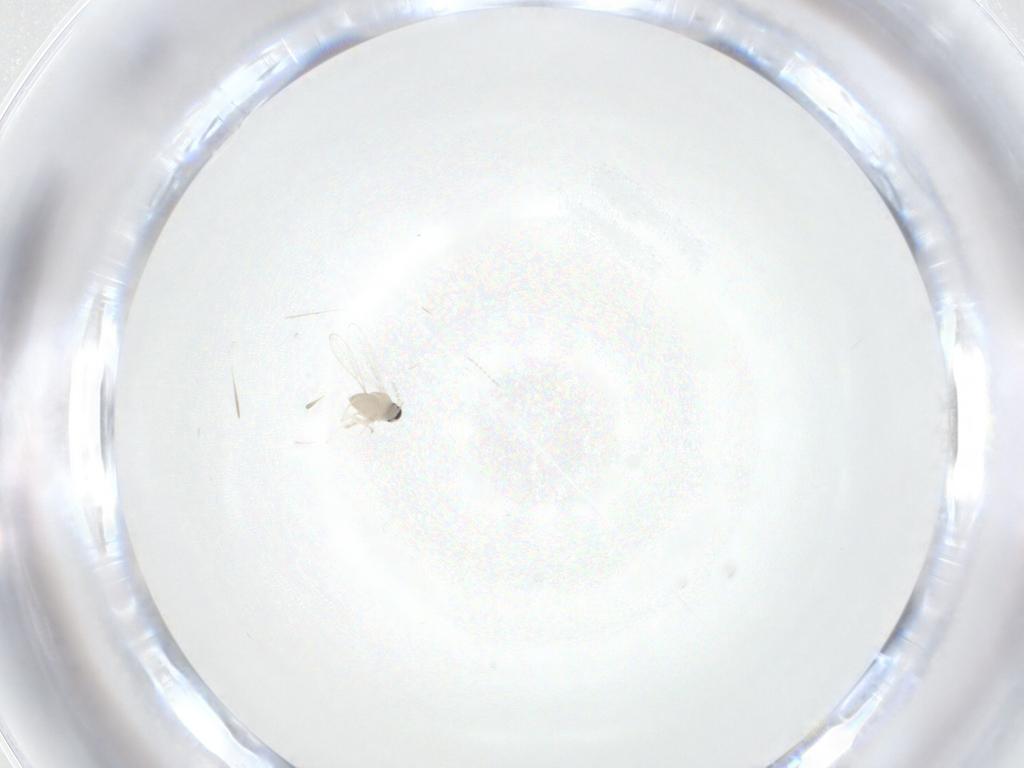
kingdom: Animalia
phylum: Arthropoda
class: Insecta
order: Diptera
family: Cecidomyiidae
